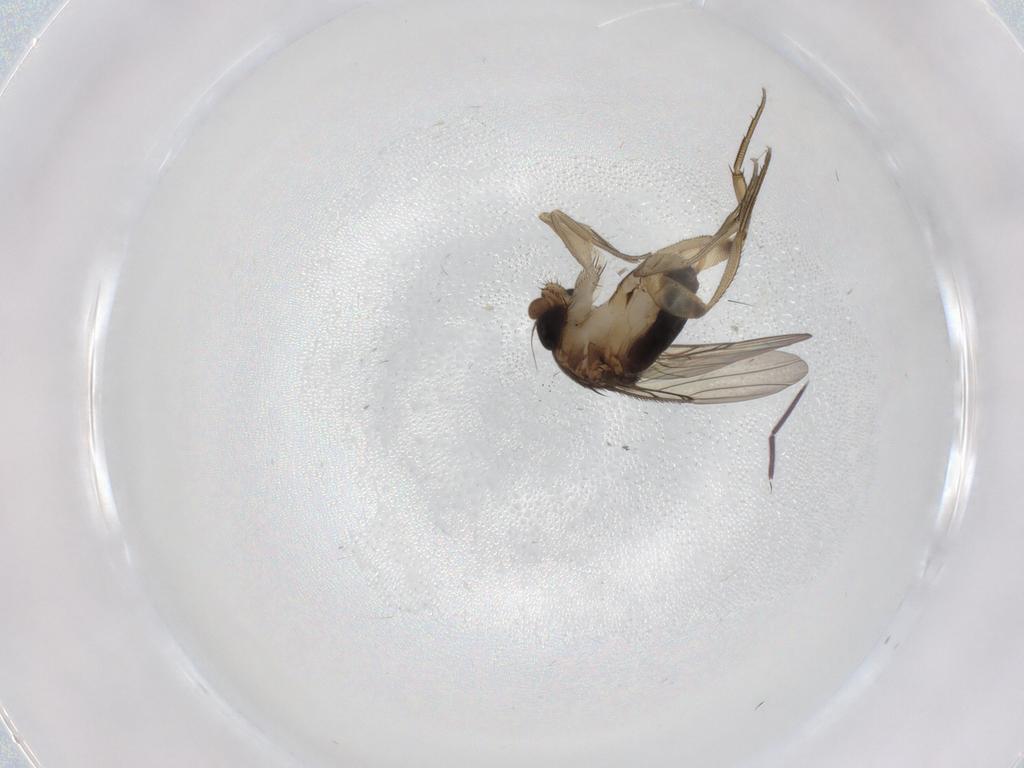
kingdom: Animalia
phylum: Arthropoda
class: Insecta
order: Diptera
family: Phoridae
